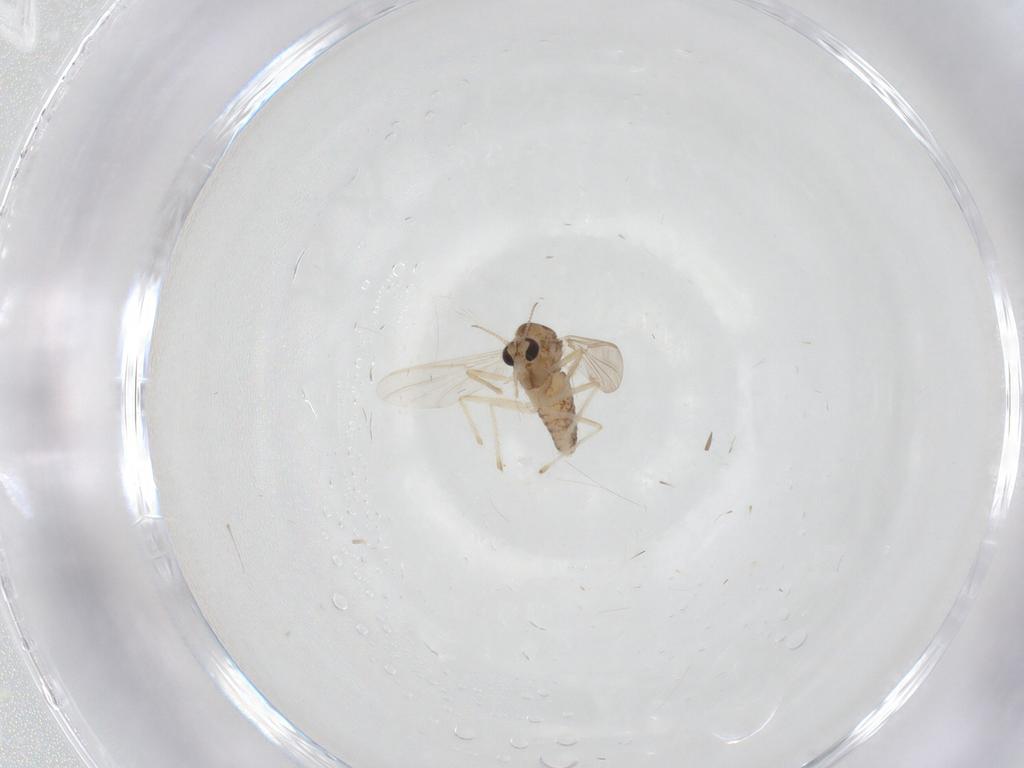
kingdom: Animalia
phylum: Arthropoda
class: Insecta
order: Diptera
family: Chironomidae
